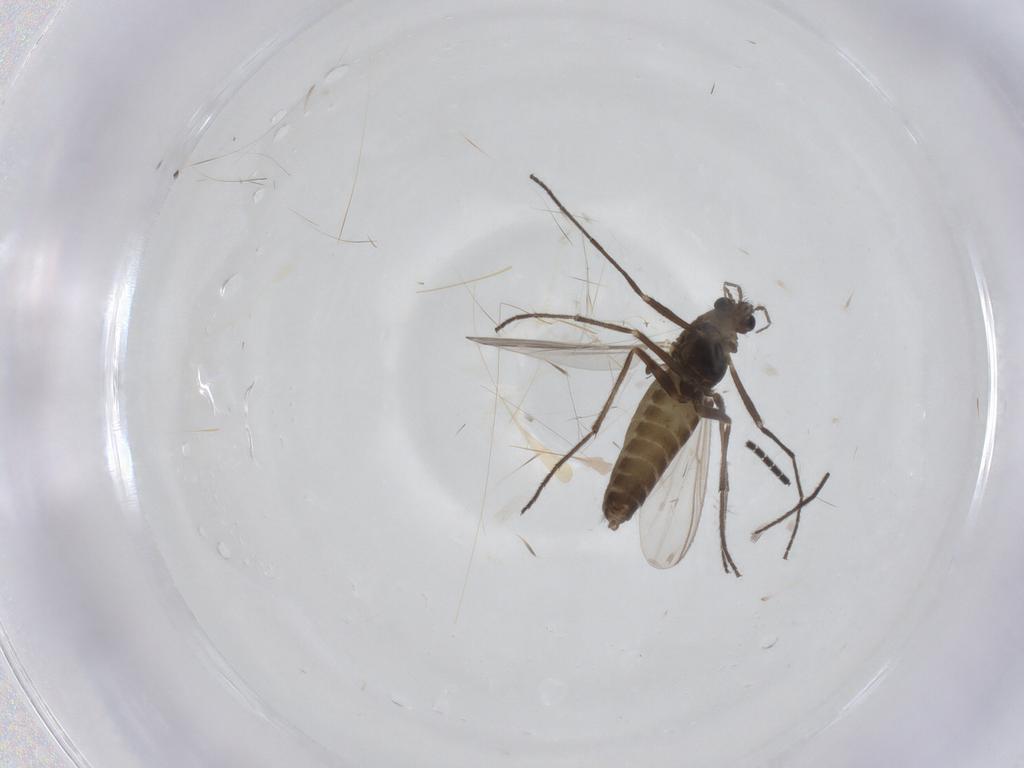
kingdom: Animalia
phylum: Arthropoda
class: Insecta
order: Diptera
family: Chironomidae
